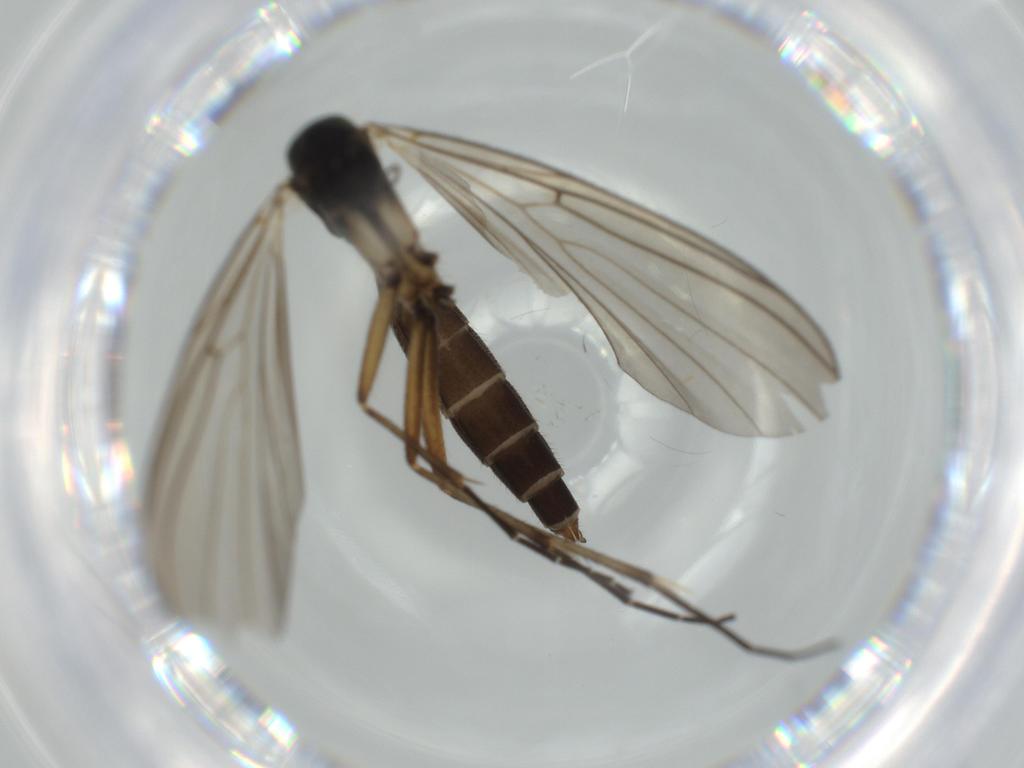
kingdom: Animalia
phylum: Arthropoda
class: Insecta
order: Diptera
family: Mycetophilidae
